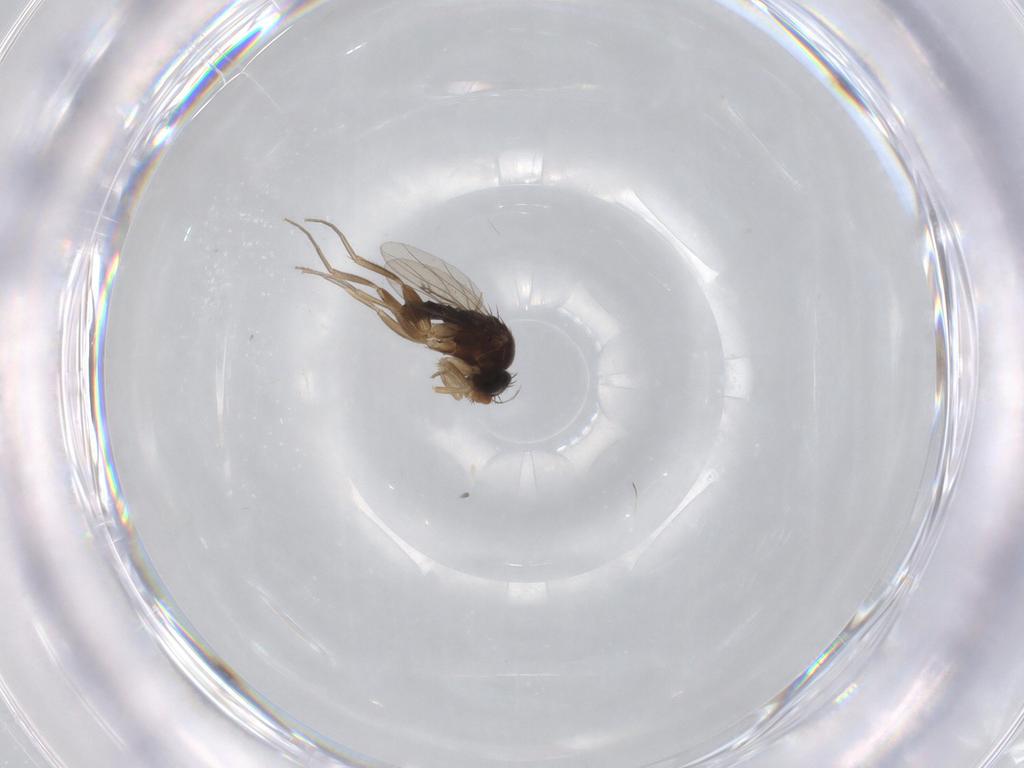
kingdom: Animalia
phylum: Arthropoda
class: Insecta
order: Diptera
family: Phoridae
